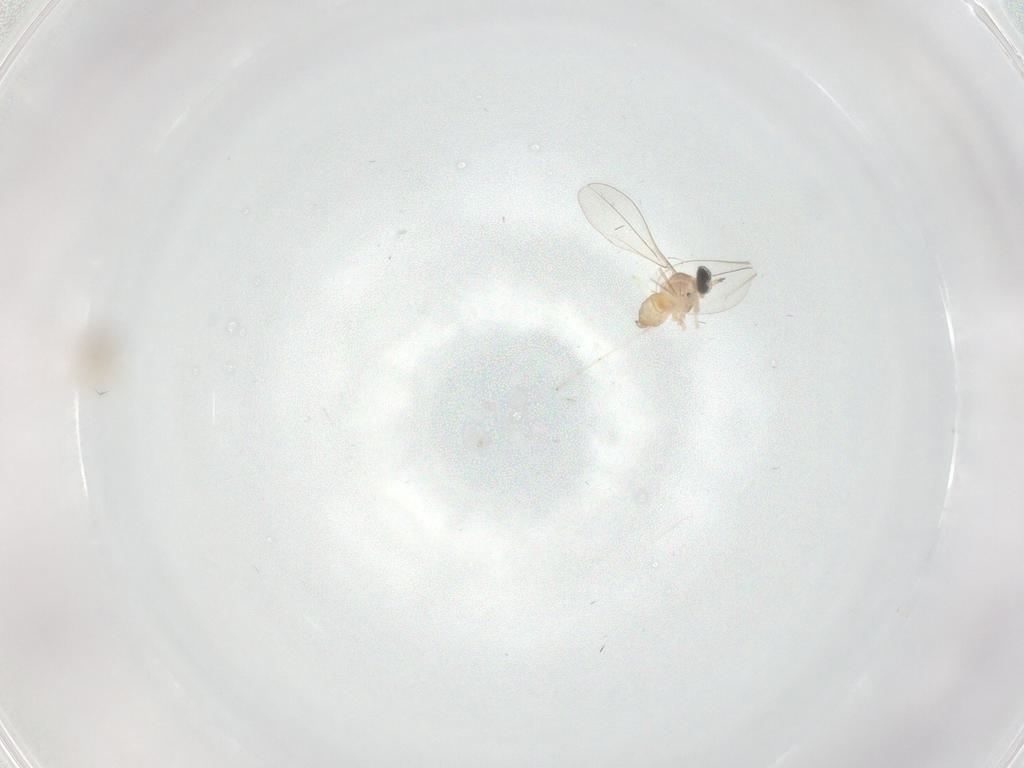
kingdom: Animalia
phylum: Arthropoda
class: Insecta
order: Diptera
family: Cecidomyiidae
